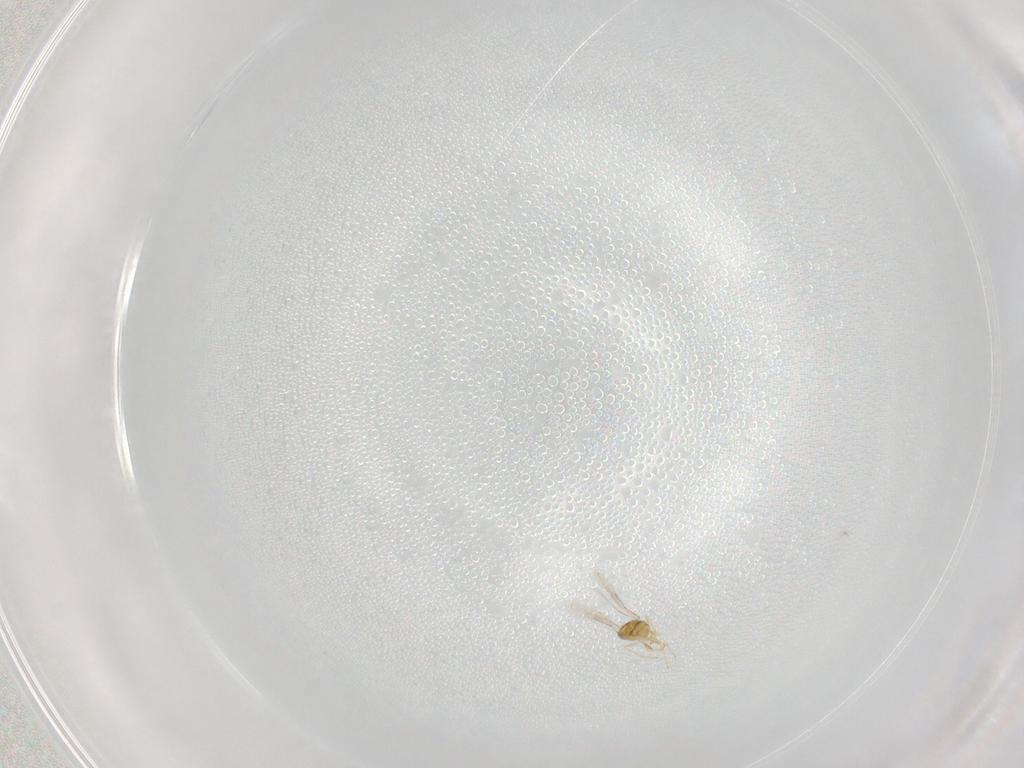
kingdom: Animalia
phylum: Arthropoda
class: Insecta
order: Hymenoptera
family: Aphelinidae
